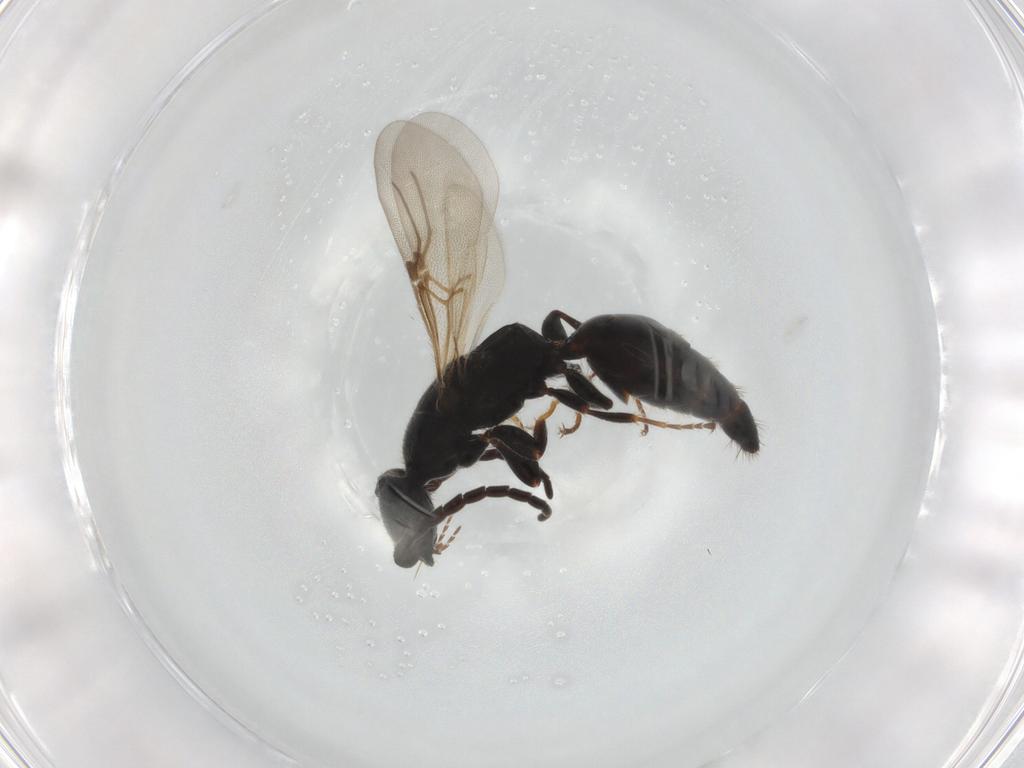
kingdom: Animalia
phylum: Arthropoda
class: Insecta
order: Hymenoptera
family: Bethylidae
